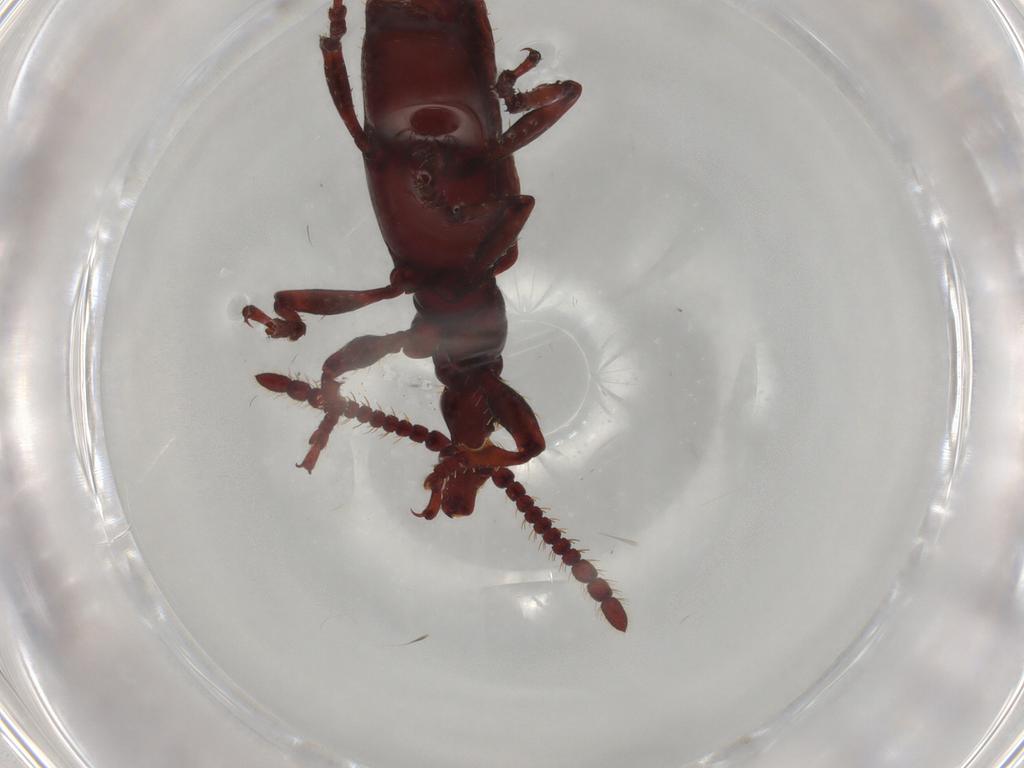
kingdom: Animalia
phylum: Arthropoda
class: Insecta
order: Coleoptera
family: Brentidae
